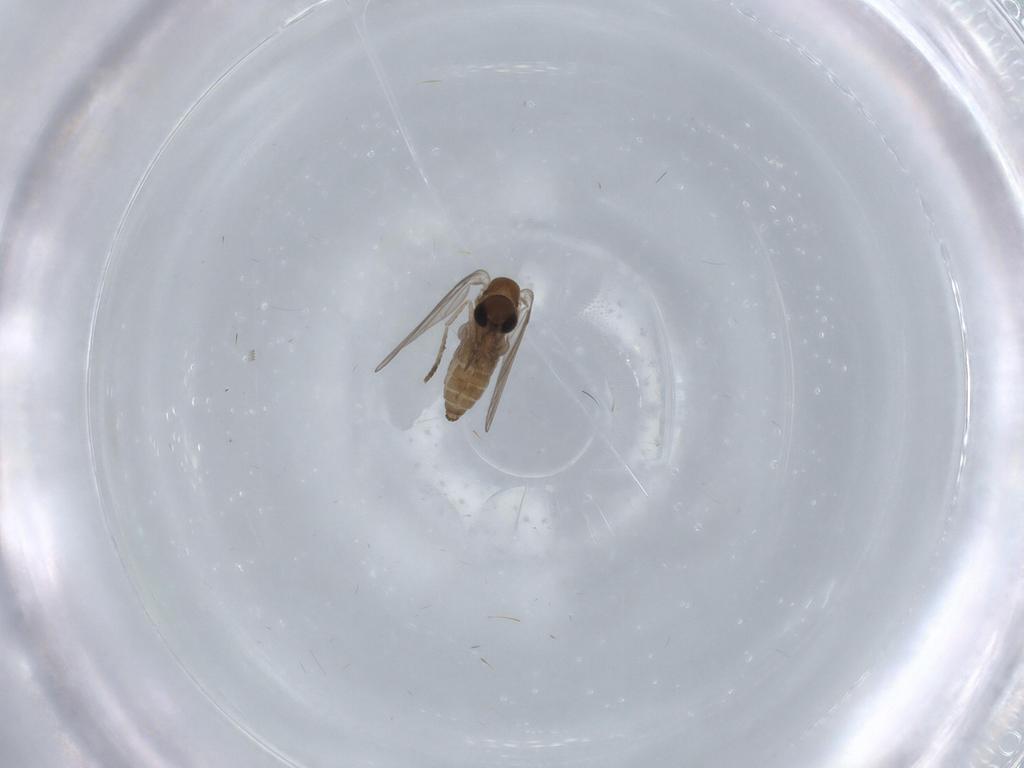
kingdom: Animalia
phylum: Arthropoda
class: Insecta
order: Diptera
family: Psychodidae
